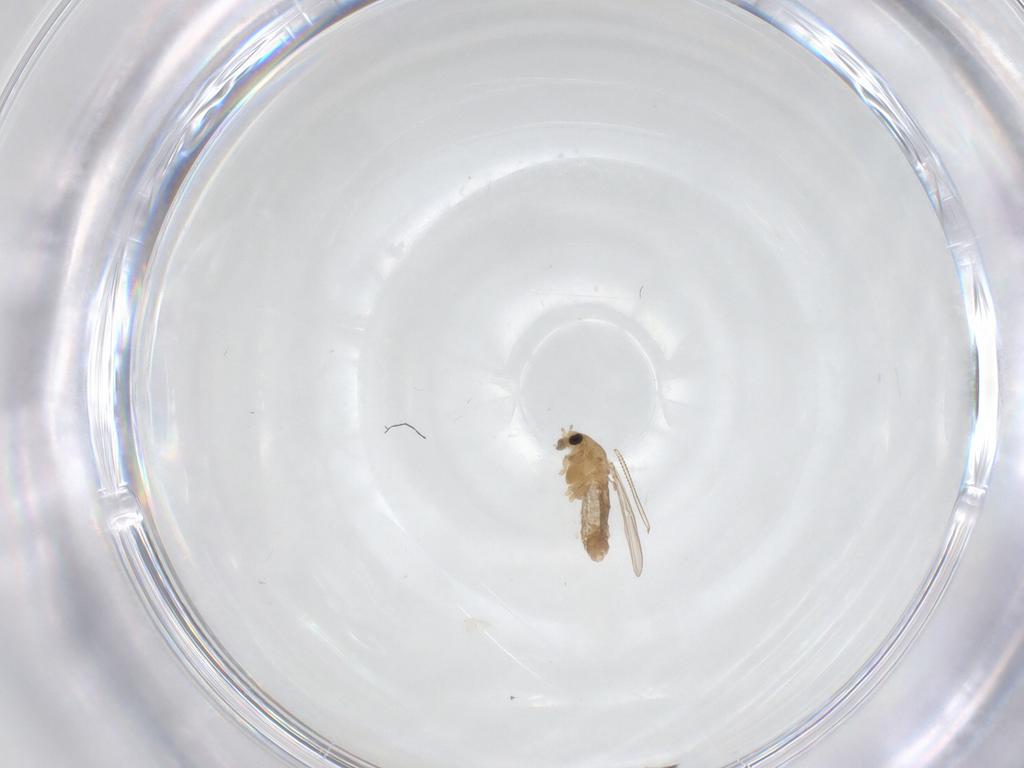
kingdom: Animalia
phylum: Arthropoda
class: Insecta
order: Diptera
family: Chironomidae
